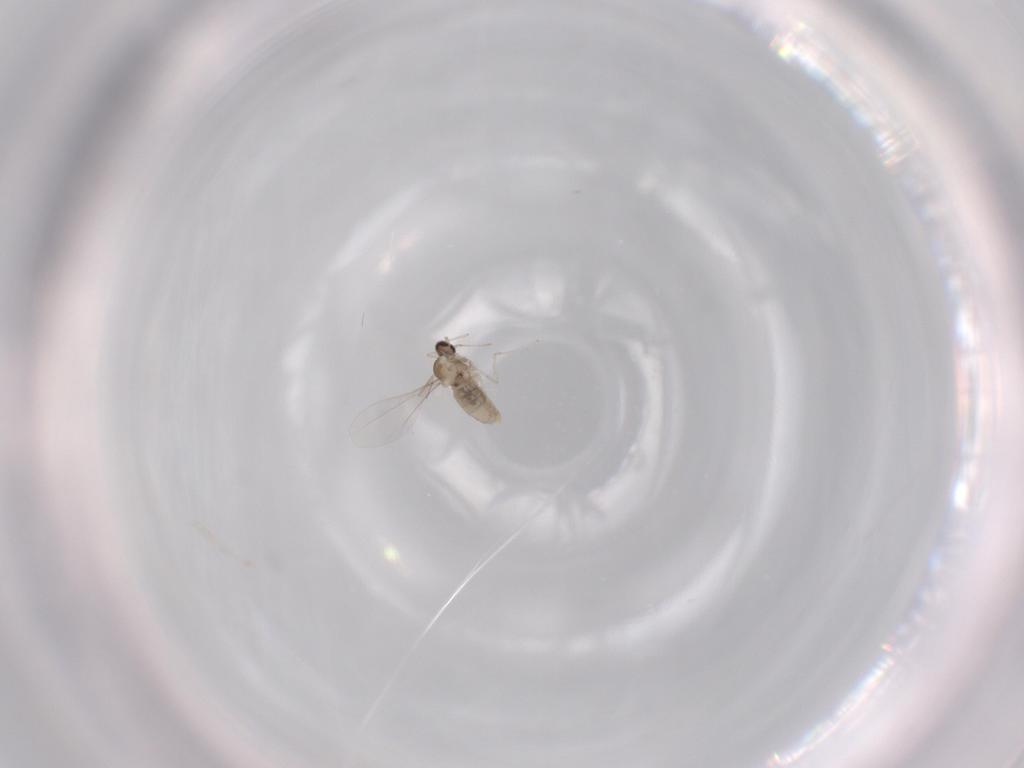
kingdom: Animalia
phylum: Arthropoda
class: Insecta
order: Diptera
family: Cecidomyiidae
